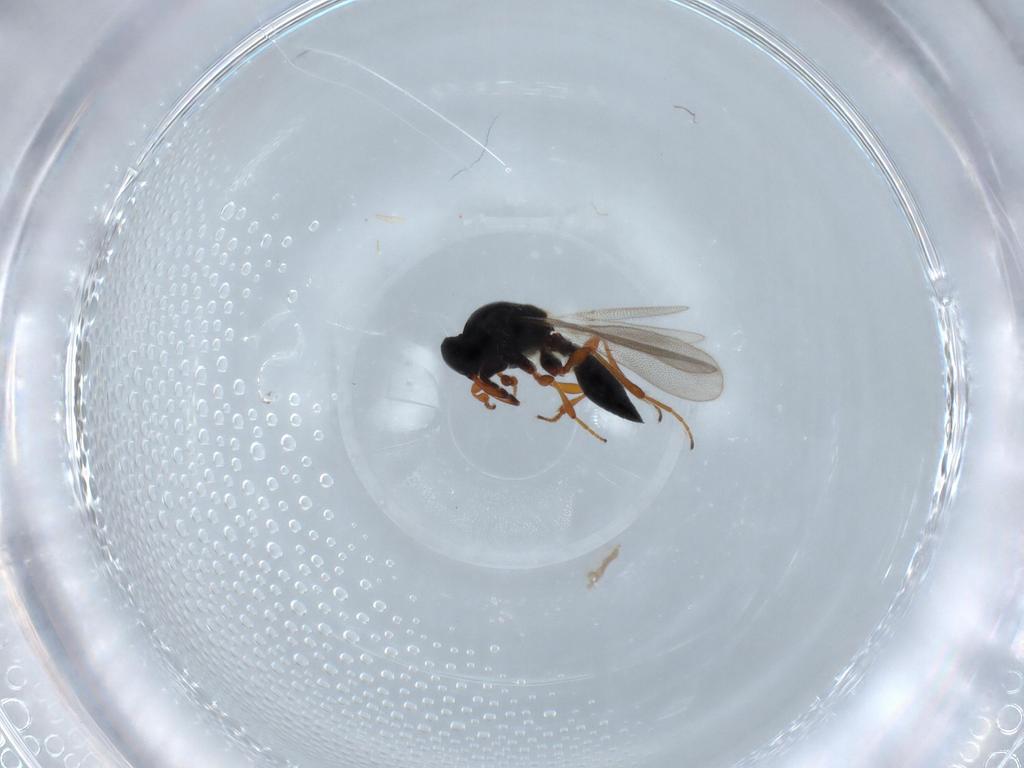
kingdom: Animalia
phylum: Arthropoda
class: Insecta
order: Hymenoptera
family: Platygastridae
